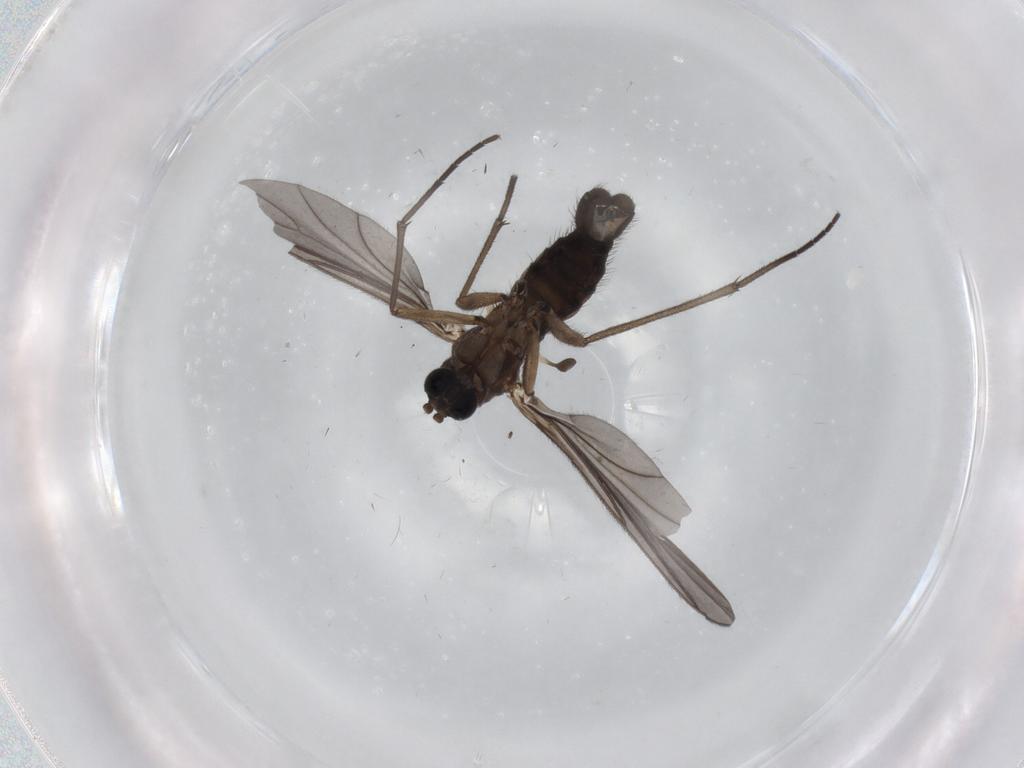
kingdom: Animalia
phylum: Arthropoda
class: Insecta
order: Diptera
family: Sciaridae
